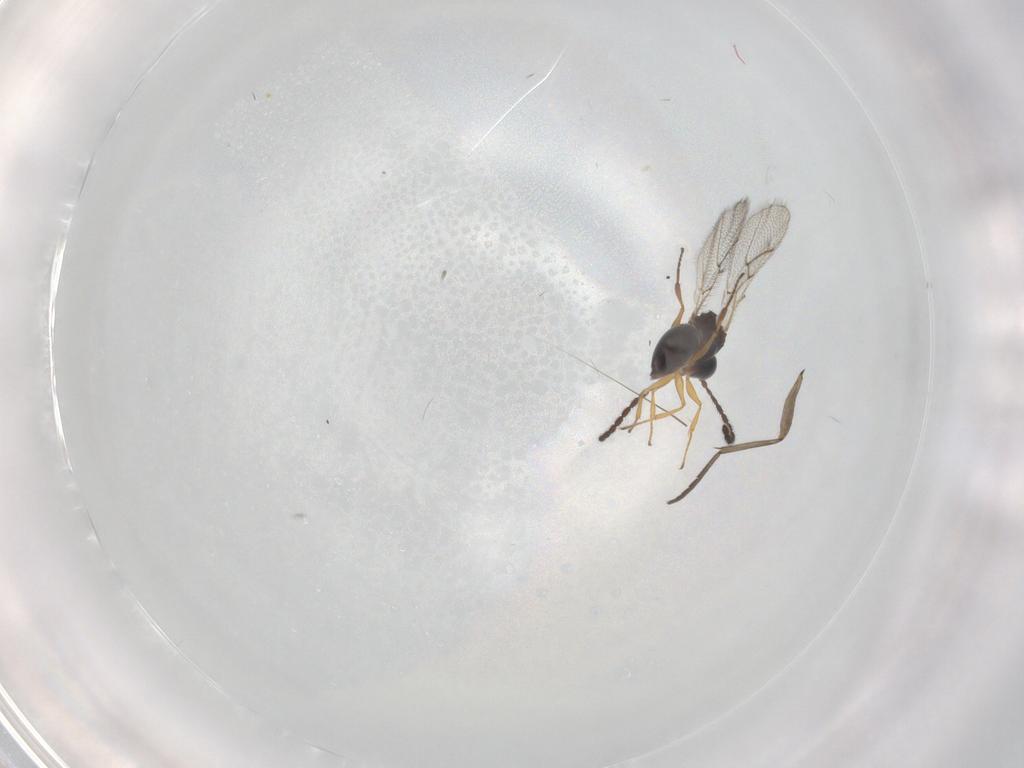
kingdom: Animalia
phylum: Arthropoda
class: Insecta
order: Hymenoptera
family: Figitidae
